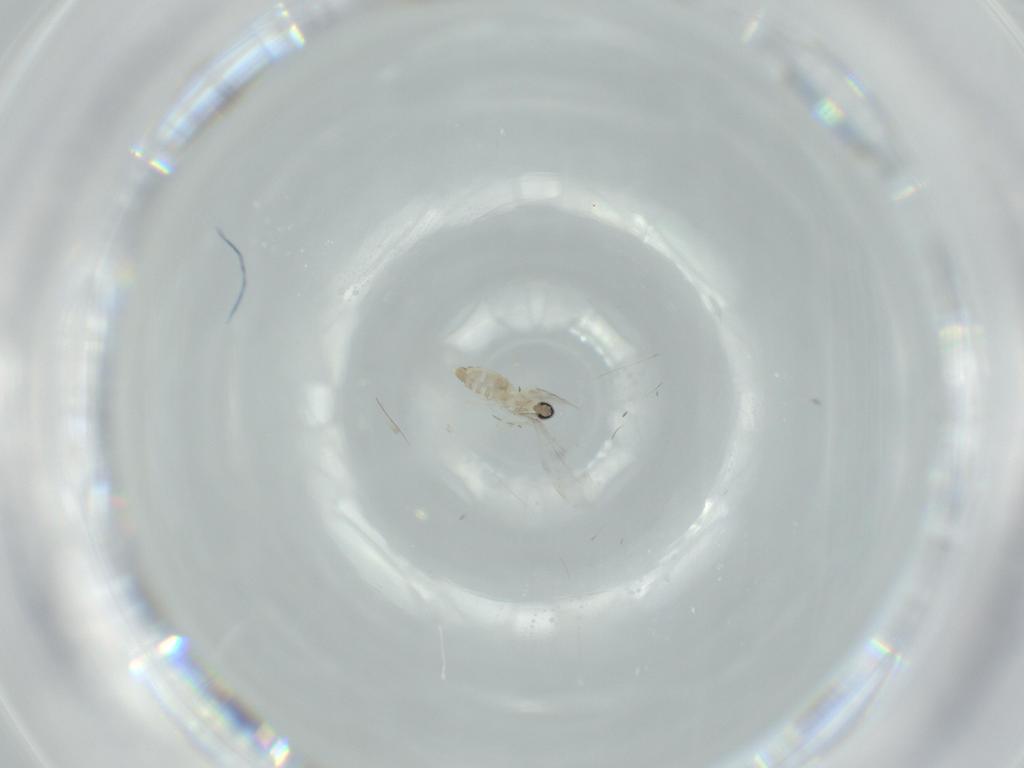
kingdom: Animalia
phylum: Arthropoda
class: Insecta
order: Diptera
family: Cecidomyiidae
